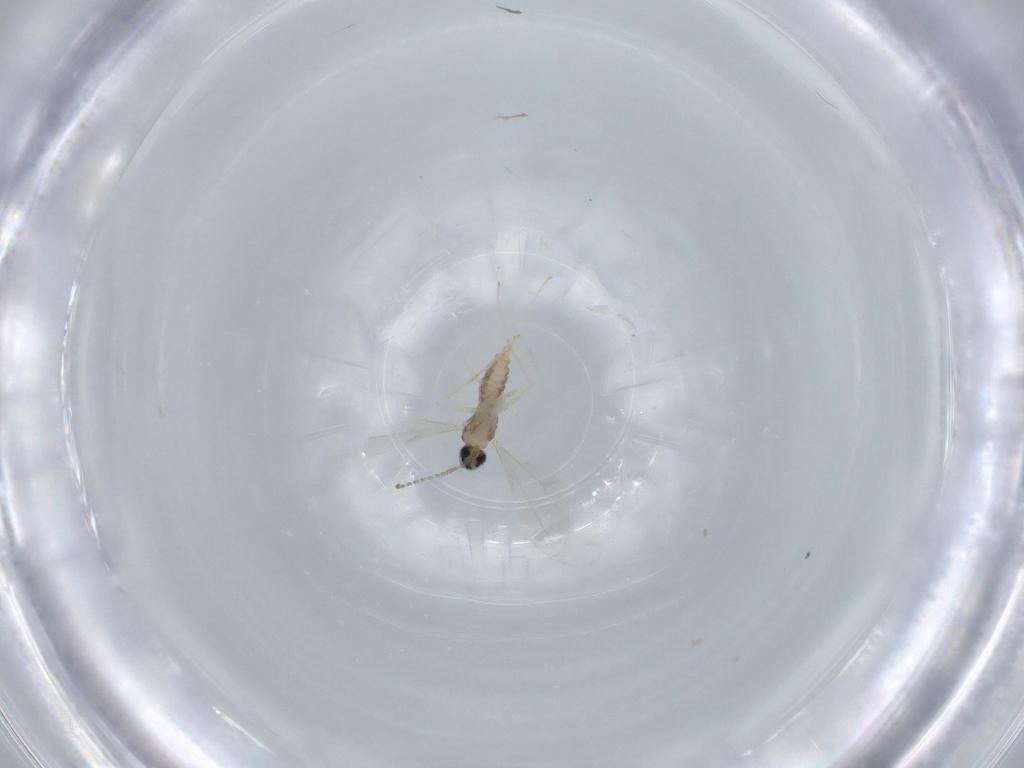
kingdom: Animalia
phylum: Arthropoda
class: Insecta
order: Diptera
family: Cecidomyiidae
